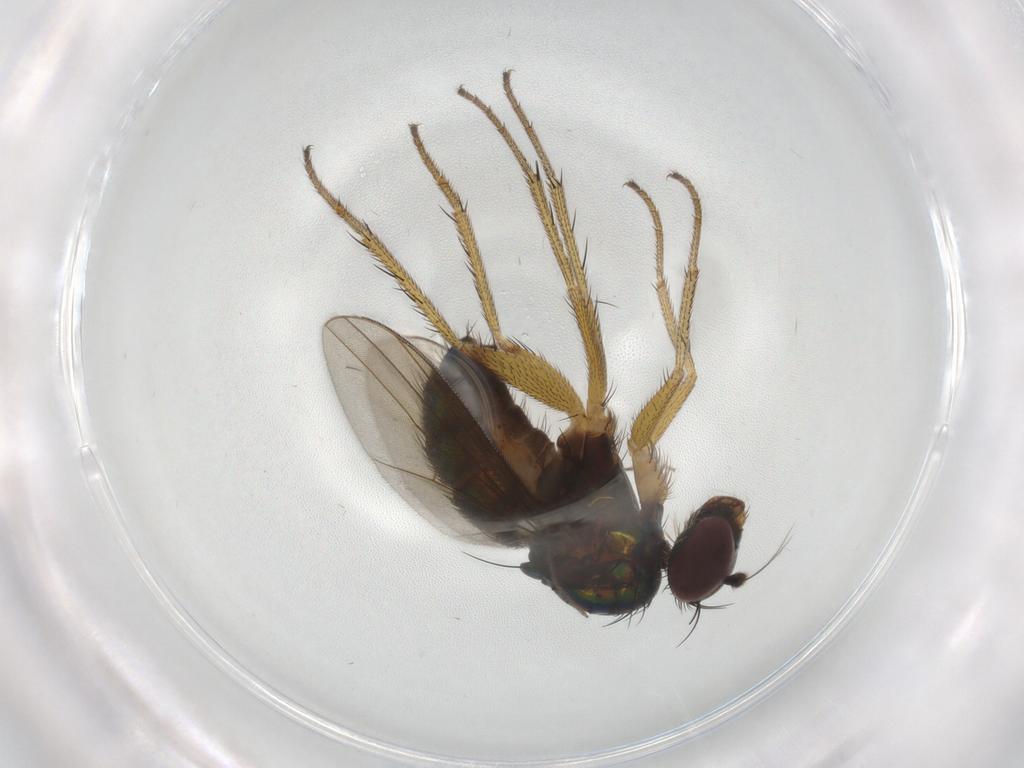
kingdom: Animalia
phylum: Arthropoda
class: Insecta
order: Diptera
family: Dolichopodidae
